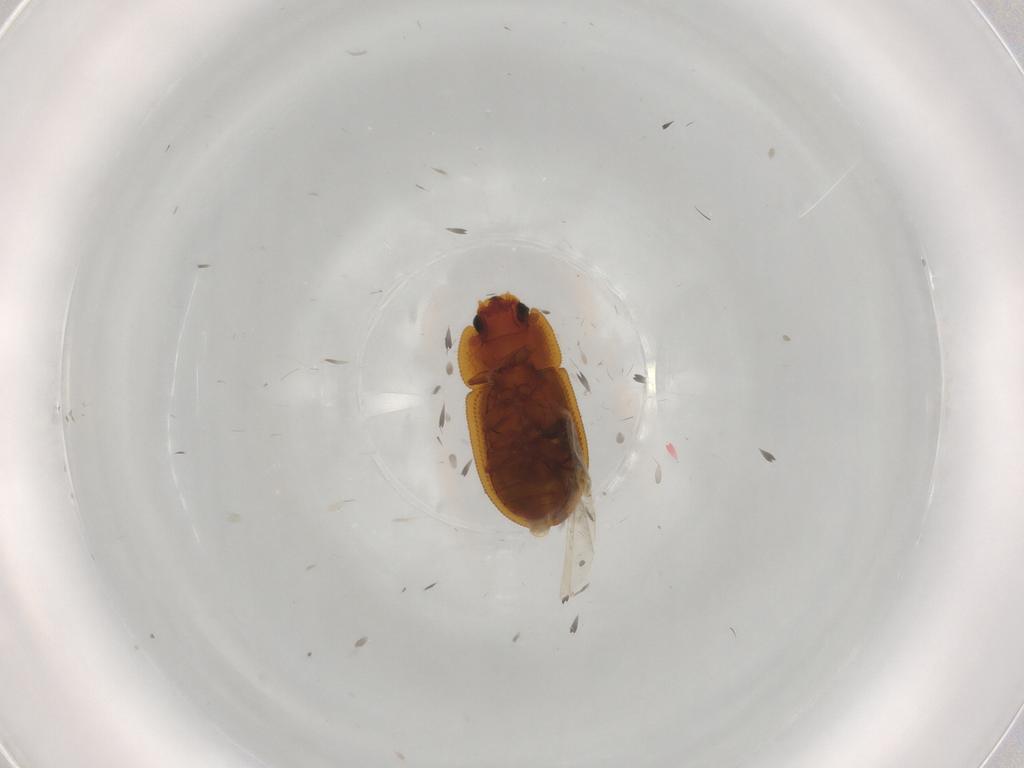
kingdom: Animalia
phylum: Arthropoda
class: Insecta
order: Coleoptera
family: Zopheridae
